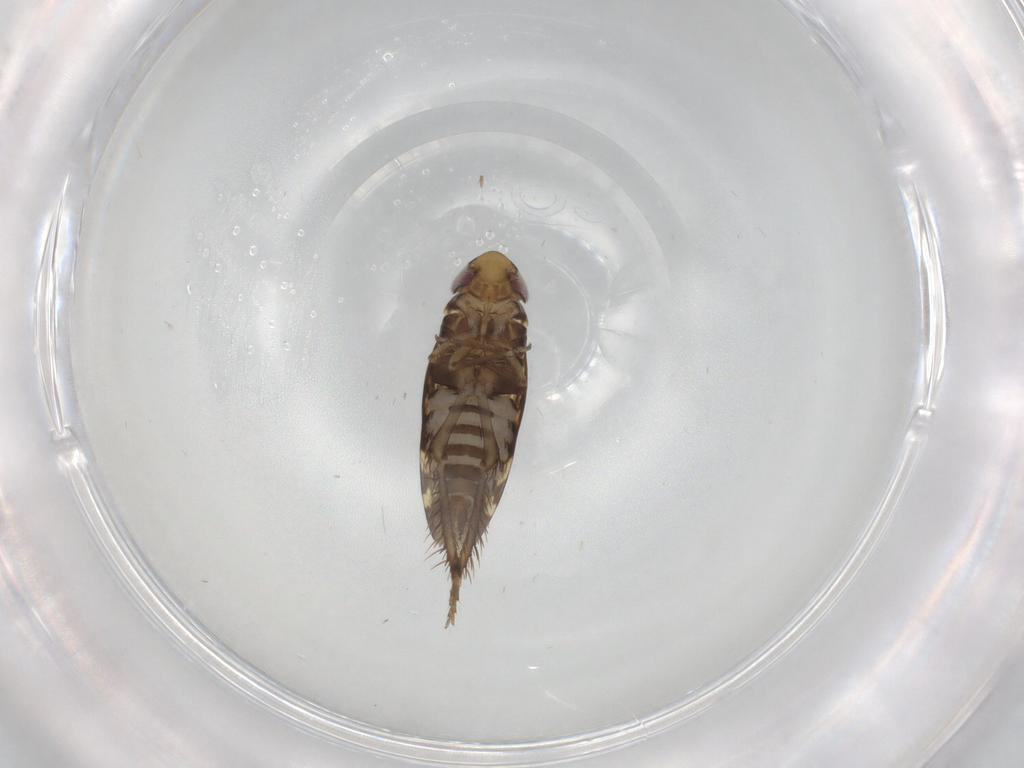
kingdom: Animalia
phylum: Arthropoda
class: Insecta
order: Hemiptera
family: Cicadellidae
